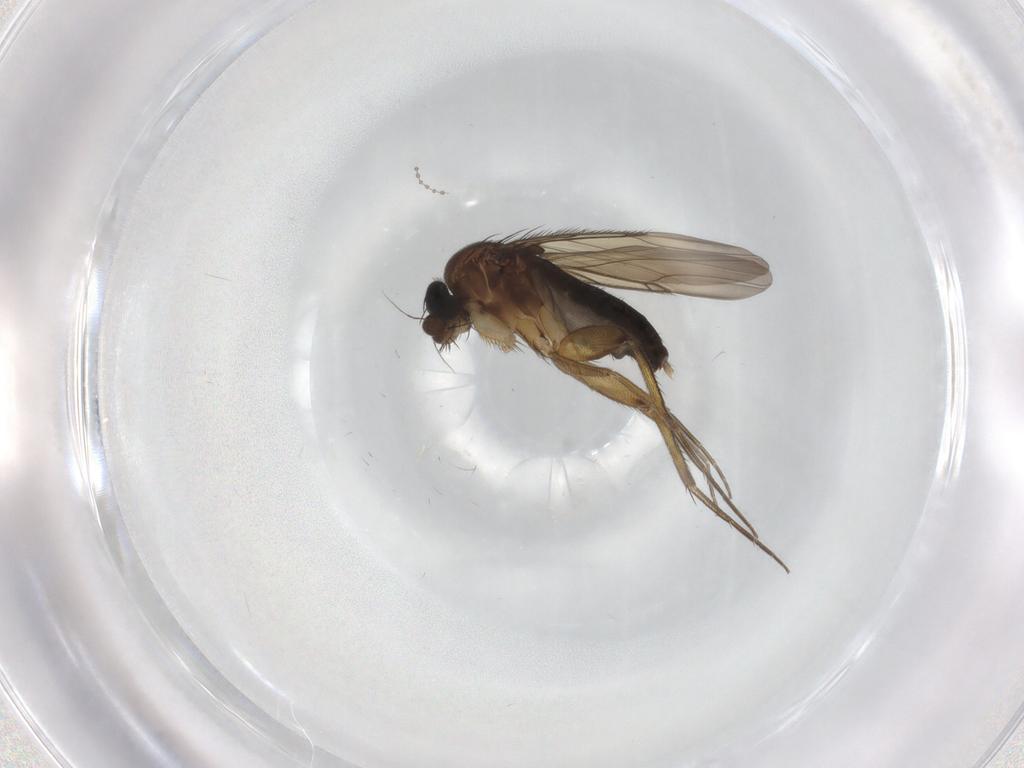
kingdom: Animalia
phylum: Arthropoda
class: Insecta
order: Diptera
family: Phoridae
